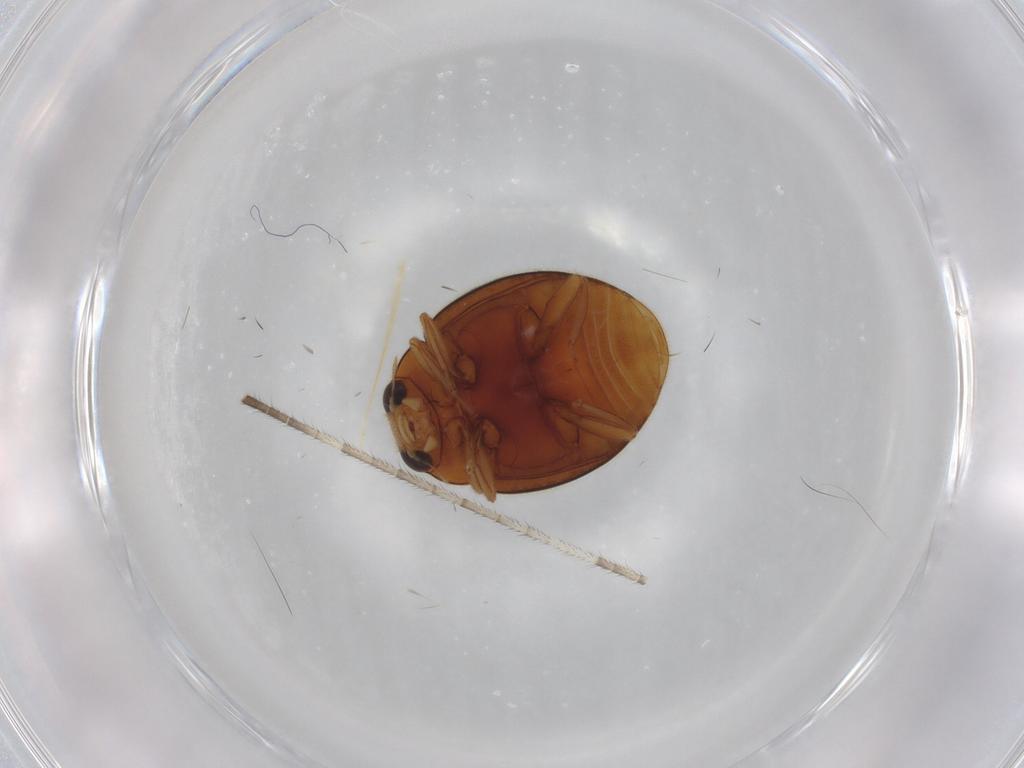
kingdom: Animalia
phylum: Arthropoda
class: Insecta
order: Coleoptera
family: Coccinellidae
